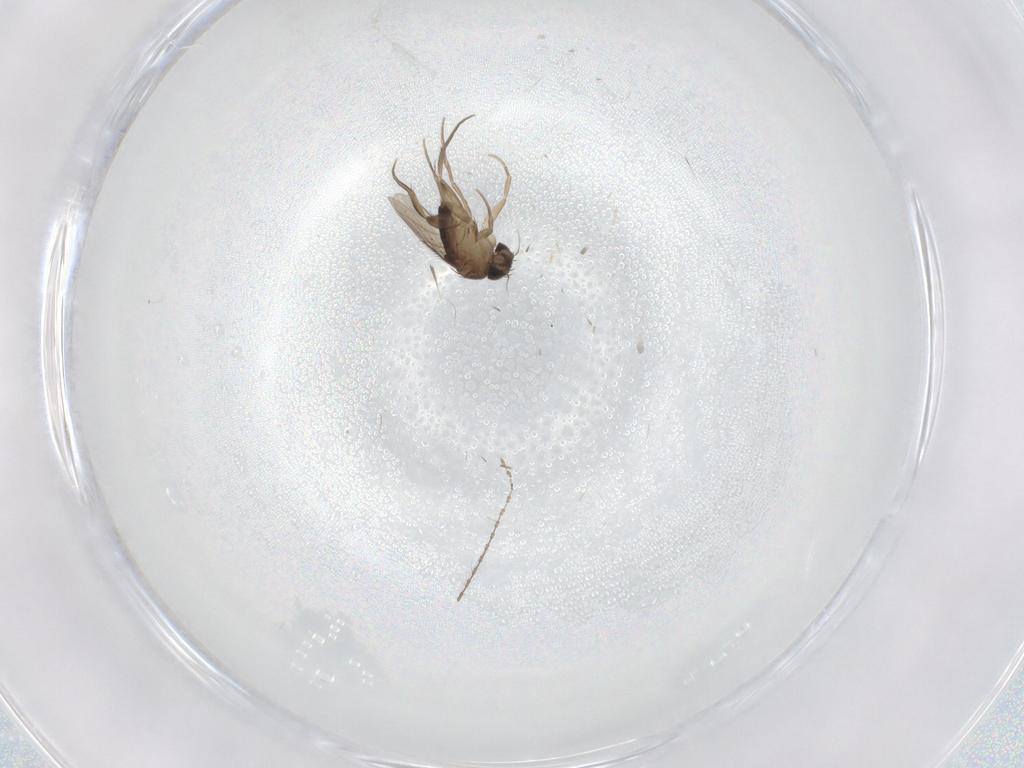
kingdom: Animalia
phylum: Arthropoda
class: Insecta
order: Diptera
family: Phoridae
